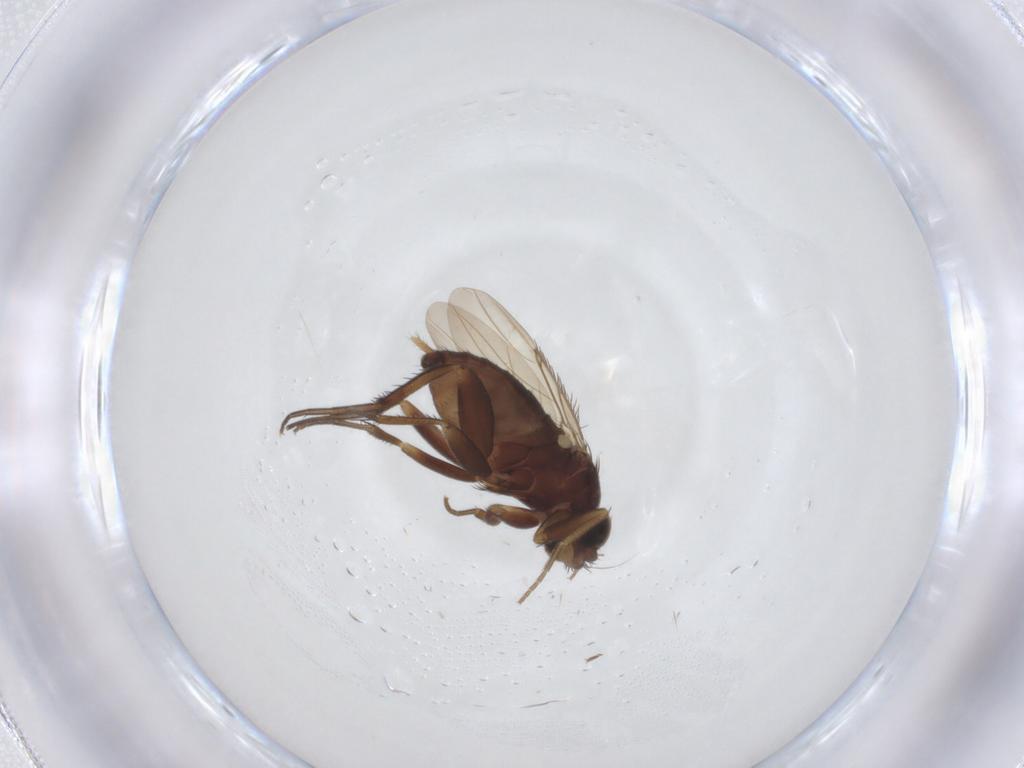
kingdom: Animalia
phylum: Arthropoda
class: Insecta
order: Diptera
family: Phoridae
